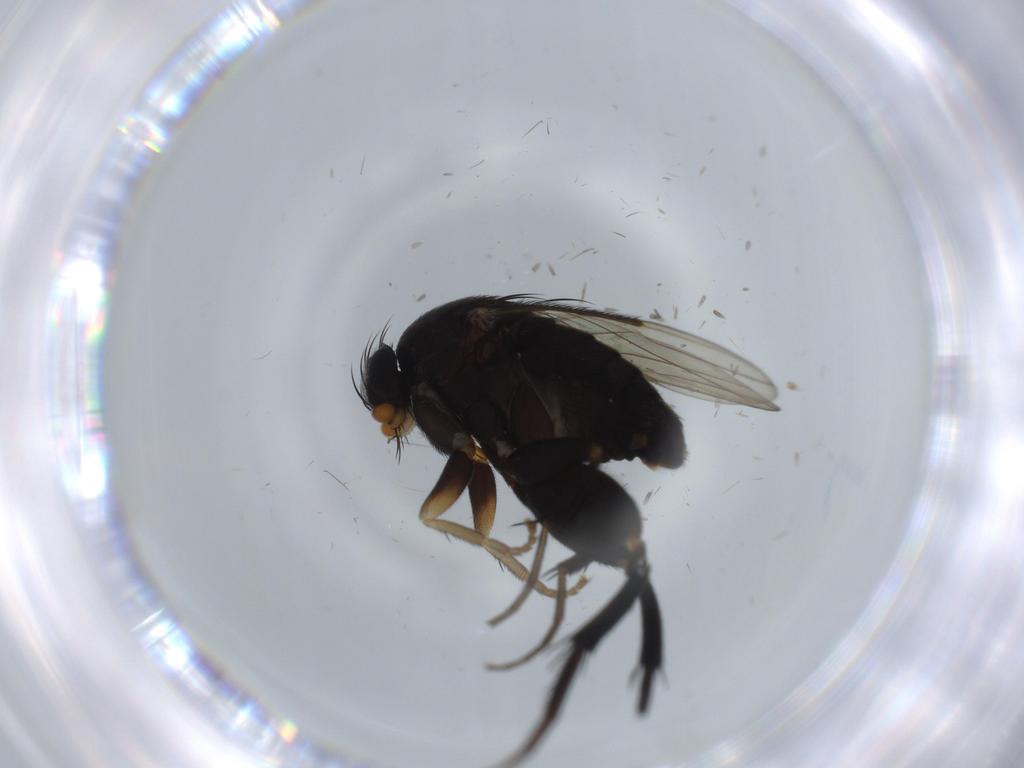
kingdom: Animalia
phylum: Arthropoda
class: Insecta
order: Diptera
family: Phoridae
